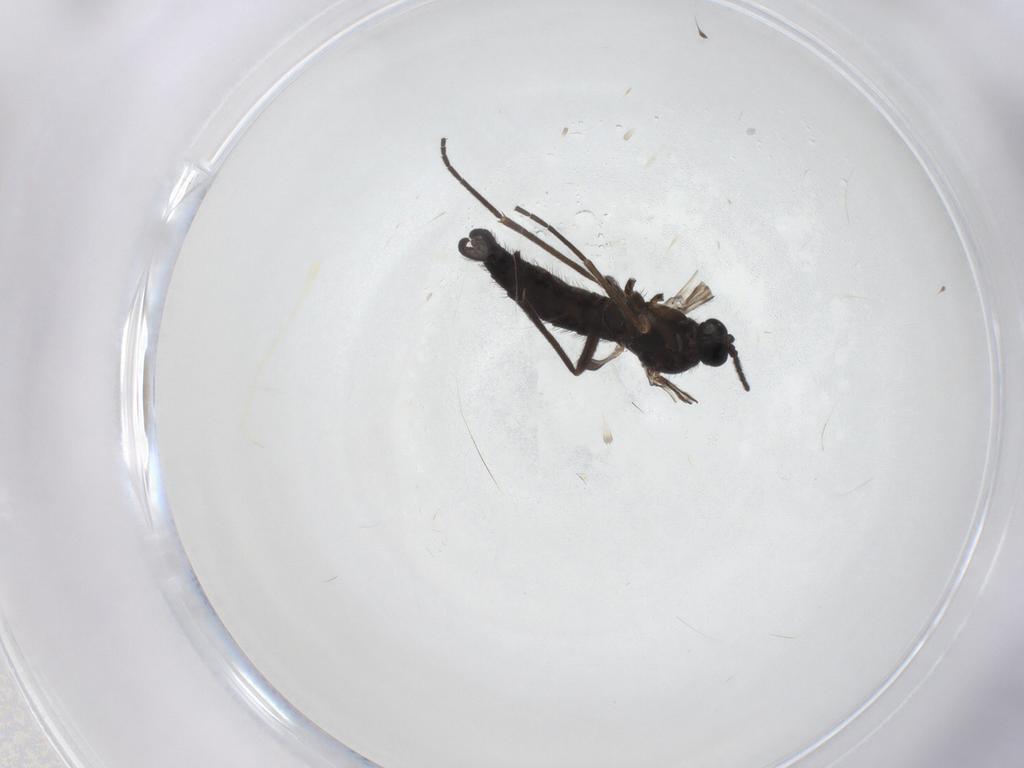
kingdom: Animalia
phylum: Arthropoda
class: Insecta
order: Diptera
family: Sciaridae
